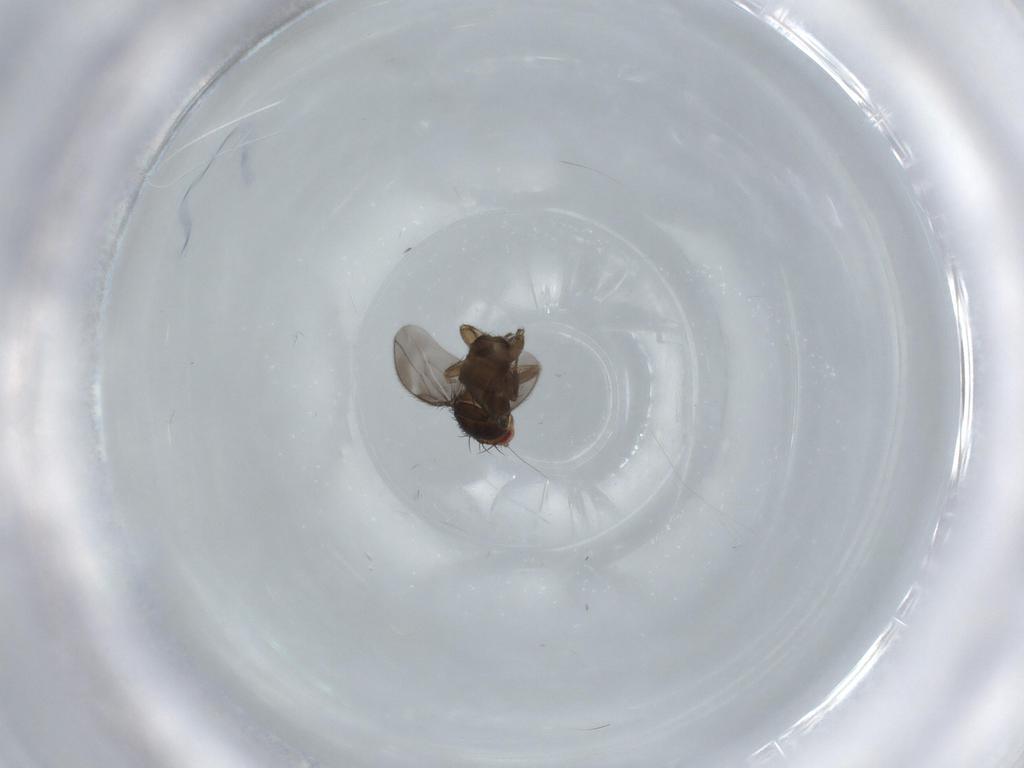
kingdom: Animalia
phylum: Arthropoda
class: Insecta
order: Diptera
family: Sphaeroceridae
